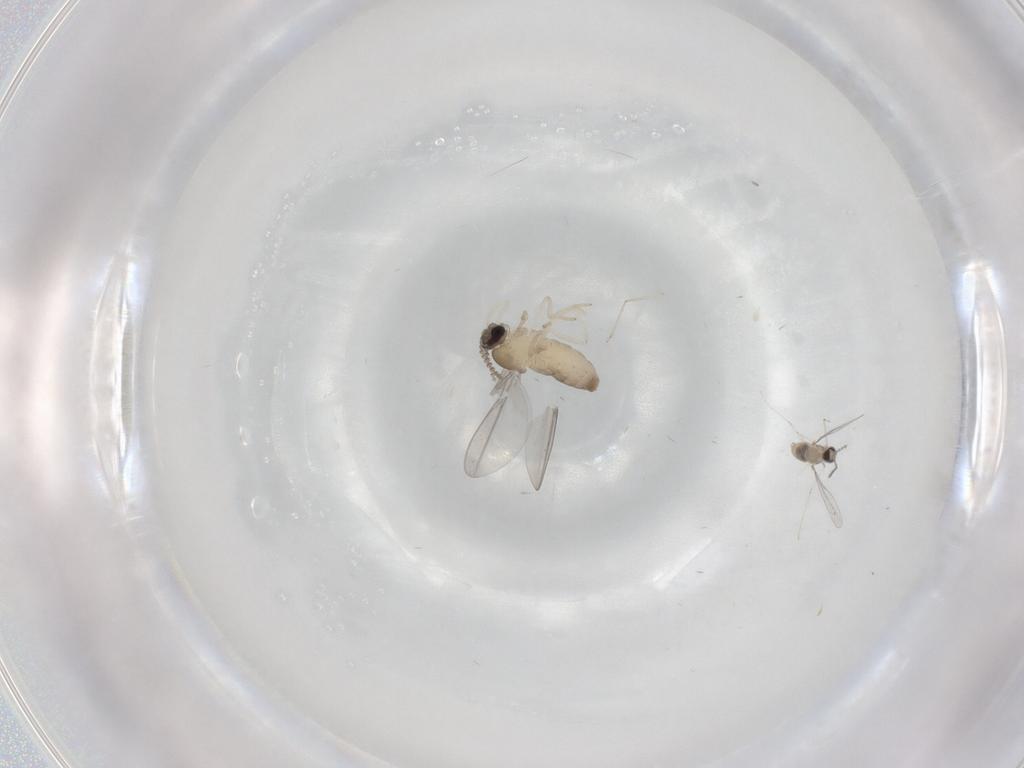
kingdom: Animalia
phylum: Arthropoda
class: Insecta
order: Diptera
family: Cecidomyiidae
